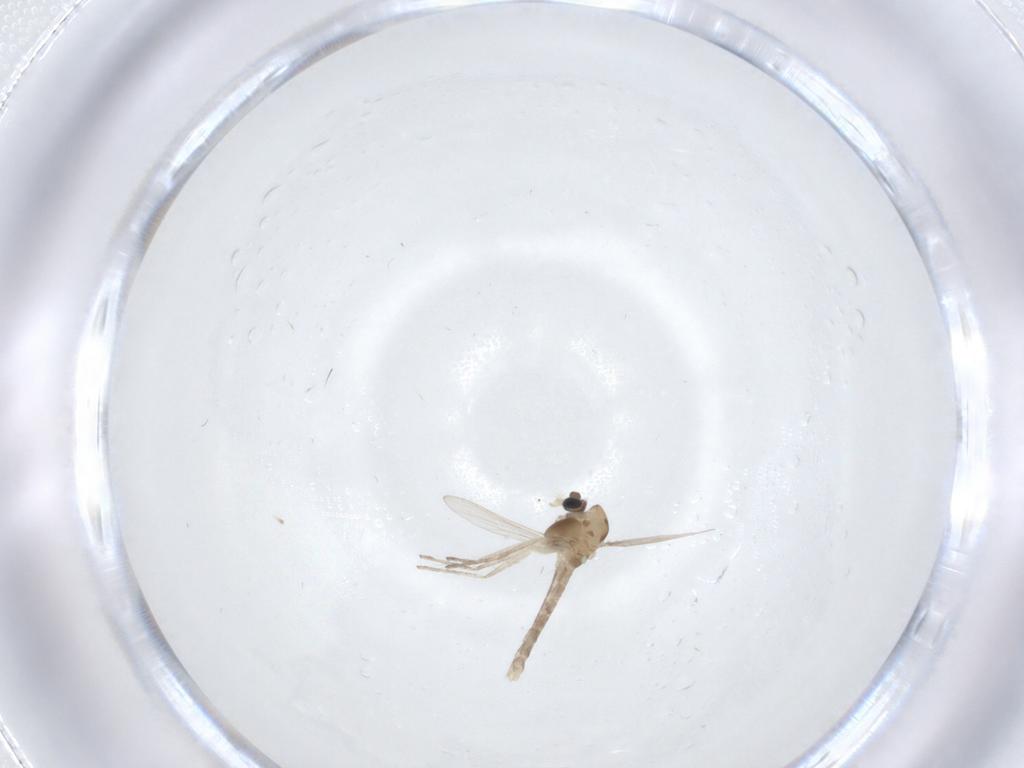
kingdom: Animalia
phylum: Arthropoda
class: Insecta
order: Diptera
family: Chironomidae
